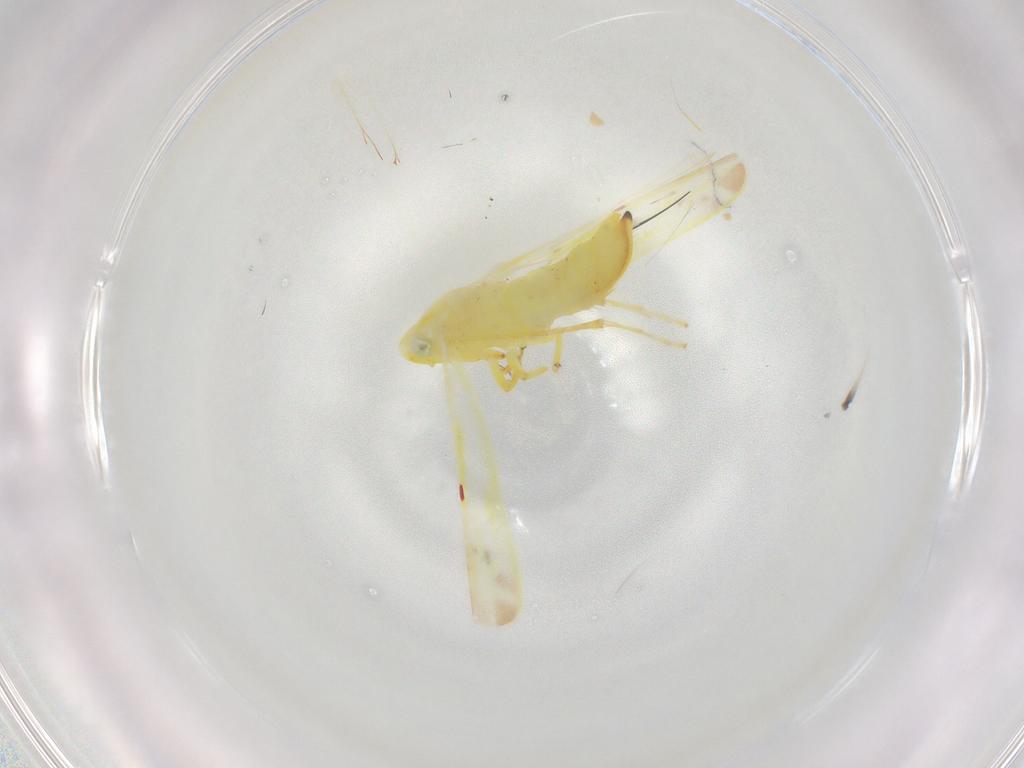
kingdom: Animalia
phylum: Arthropoda
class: Insecta
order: Hemiptera
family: Cicadellidae
